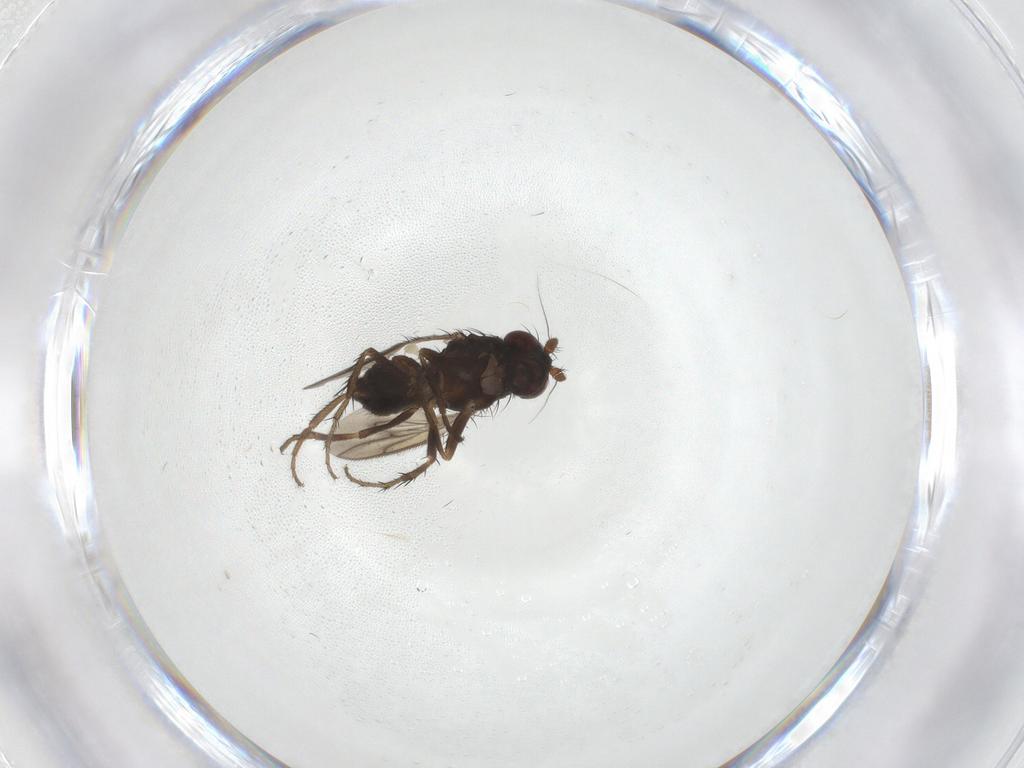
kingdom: Animalia
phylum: Arthropoda
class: Insecta
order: Diptera
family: Sphaeroceridae
